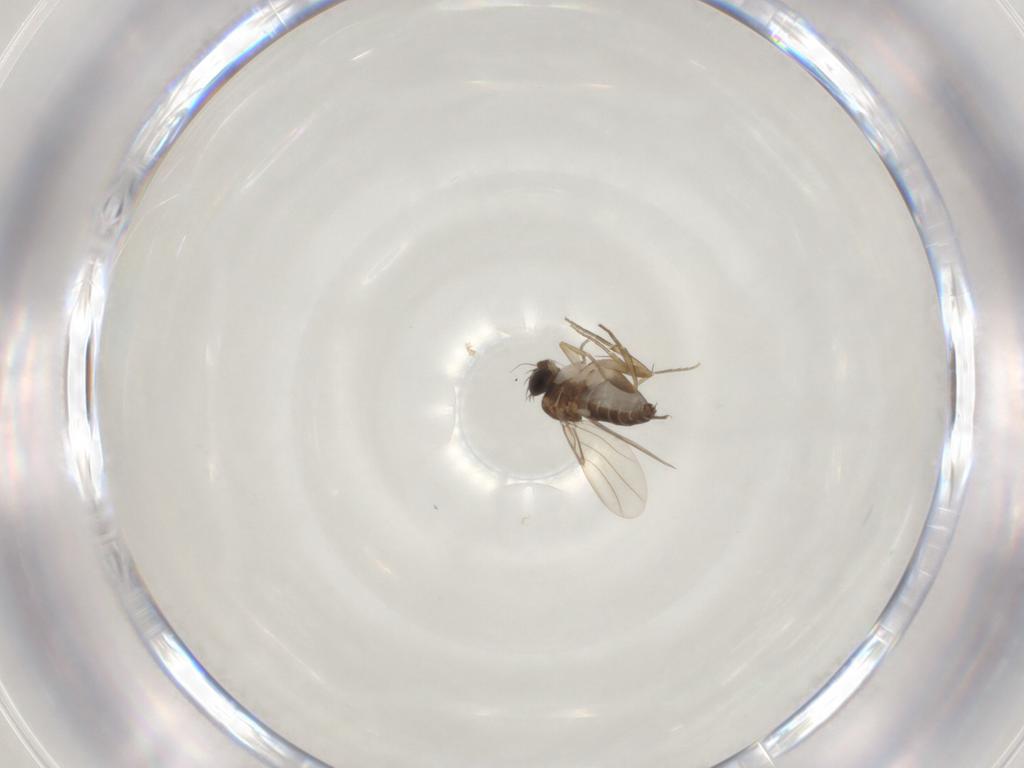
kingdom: Animalia
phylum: Arthropoda
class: Insecta
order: Diptera
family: Phoridae
